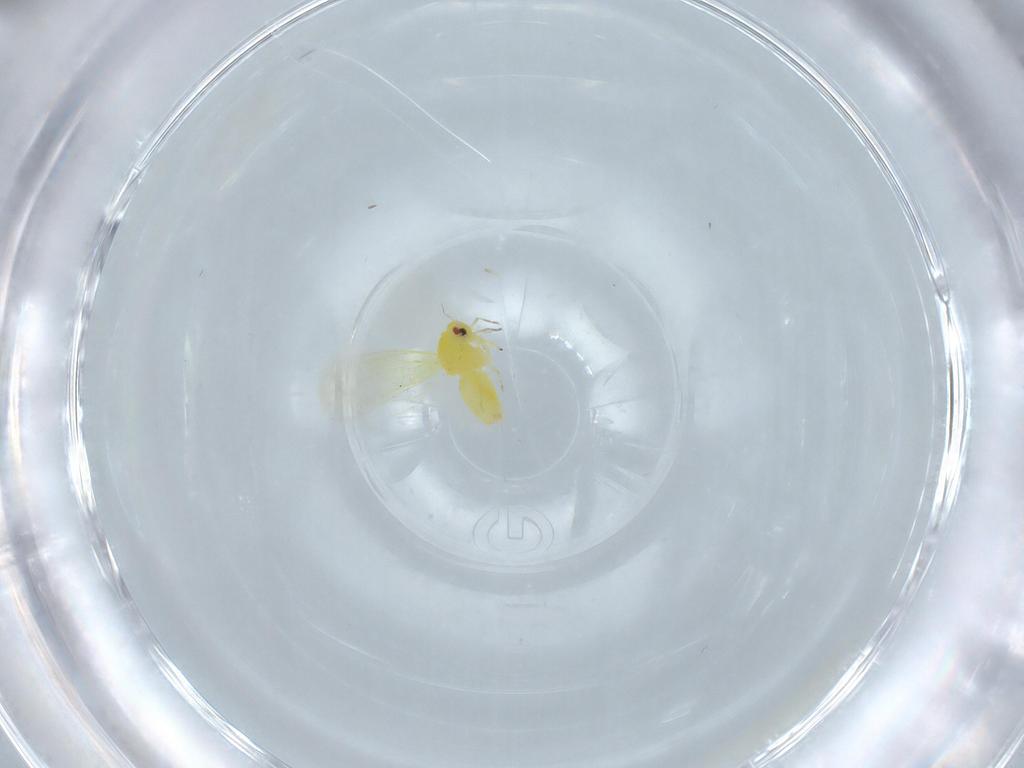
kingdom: Animalia
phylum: Arthropoda
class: Insecta
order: Hemiptera
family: Aleyrodidae
